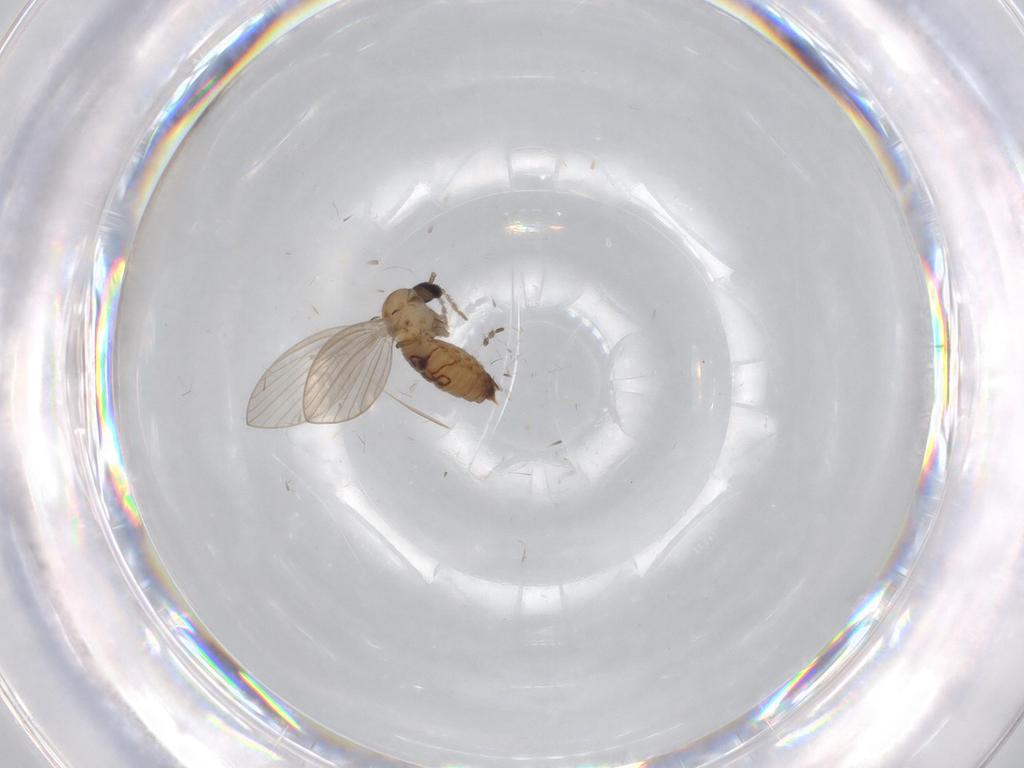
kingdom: Animalia
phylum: Arthropoda
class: Insecta
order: Diptera
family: Psychodidae
